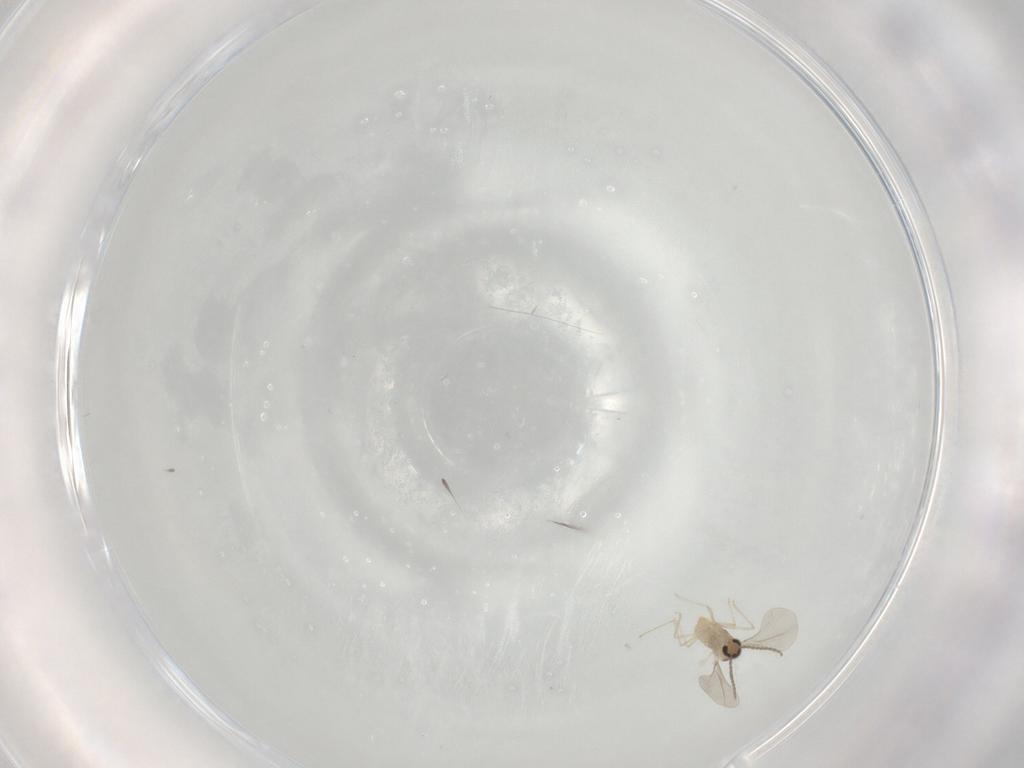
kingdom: Animalia
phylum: Arthropoda
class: Insecta
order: Diptera
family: Cecidomyiidae
